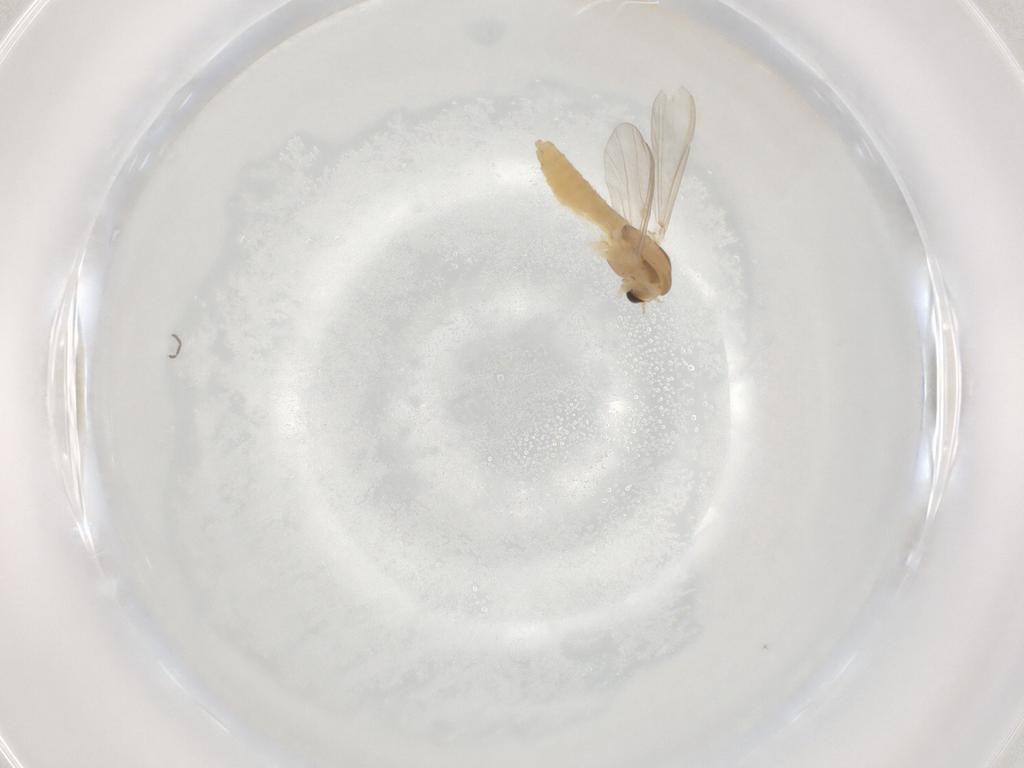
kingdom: Animalia
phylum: Arthropoda
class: Insecta
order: Diptera
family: Chironomidae
